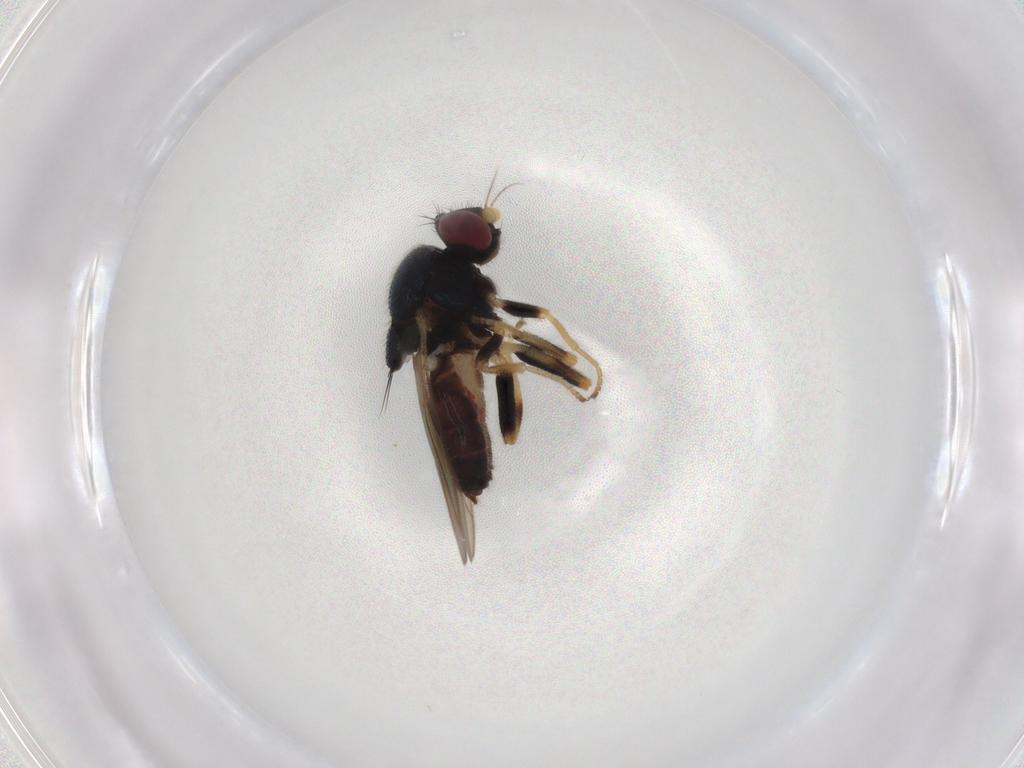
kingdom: Animalia
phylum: Arthropoda
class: Insecta
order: Diptera
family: Chloropidae
